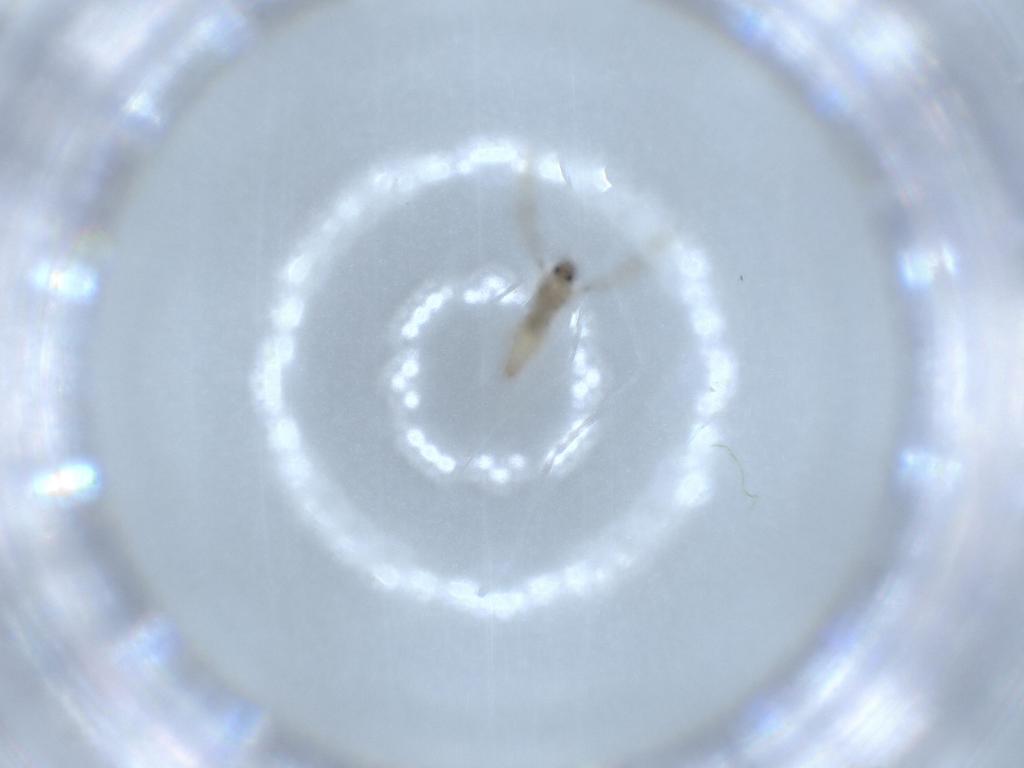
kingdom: Animalia
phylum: Arthropoda
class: Insecta
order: Diptera
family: Cecidomyiidae
